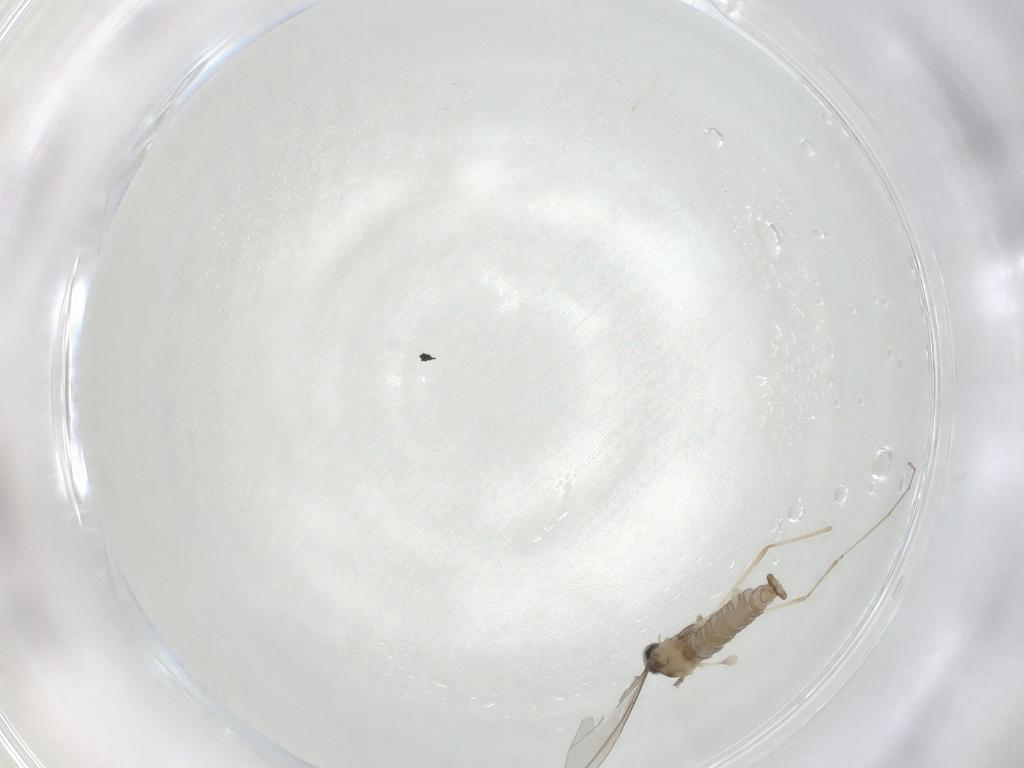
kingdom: Animalia
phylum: Arthropoda
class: Insecta
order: Diptera
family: Cecidomyiidae
